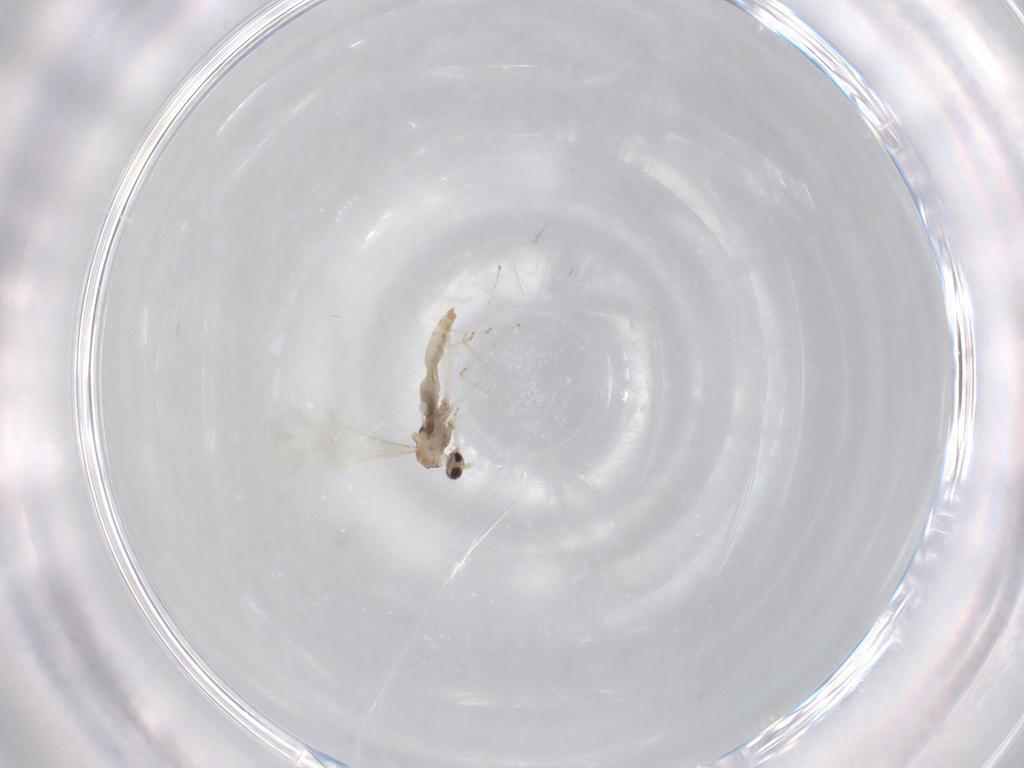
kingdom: Animalia
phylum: Arthropoda
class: Insecta
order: Diptera
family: Cecidomyiidae
